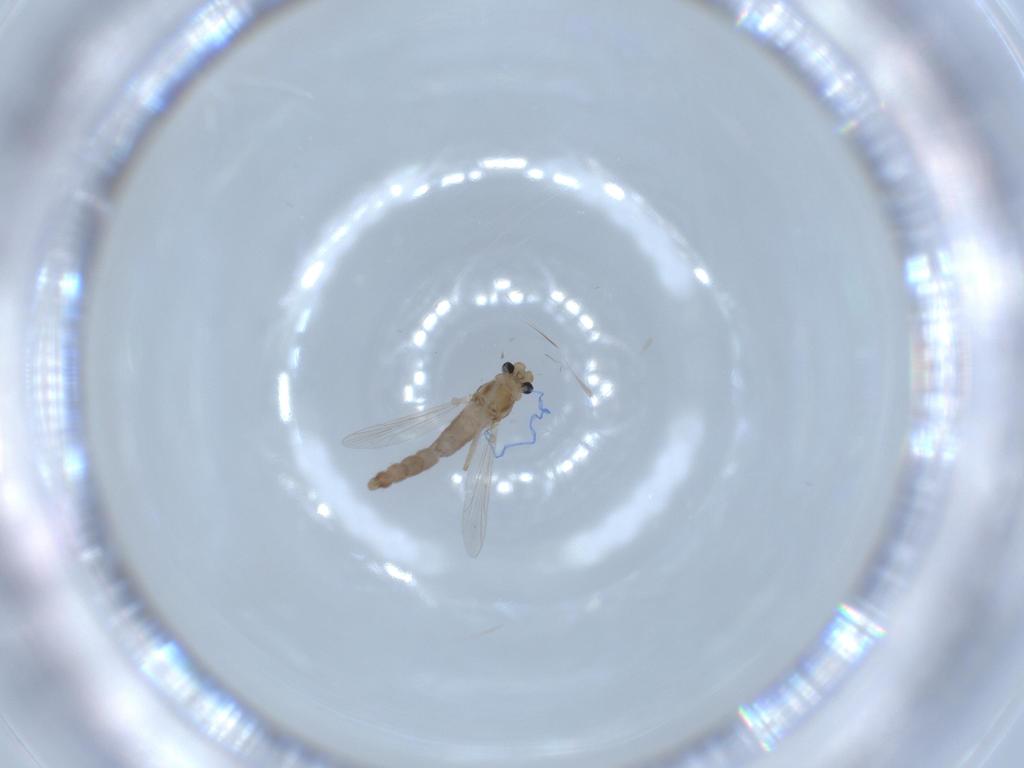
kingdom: Animalia
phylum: Arthropoda
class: Insecta
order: Diptera
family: Chironomidae
